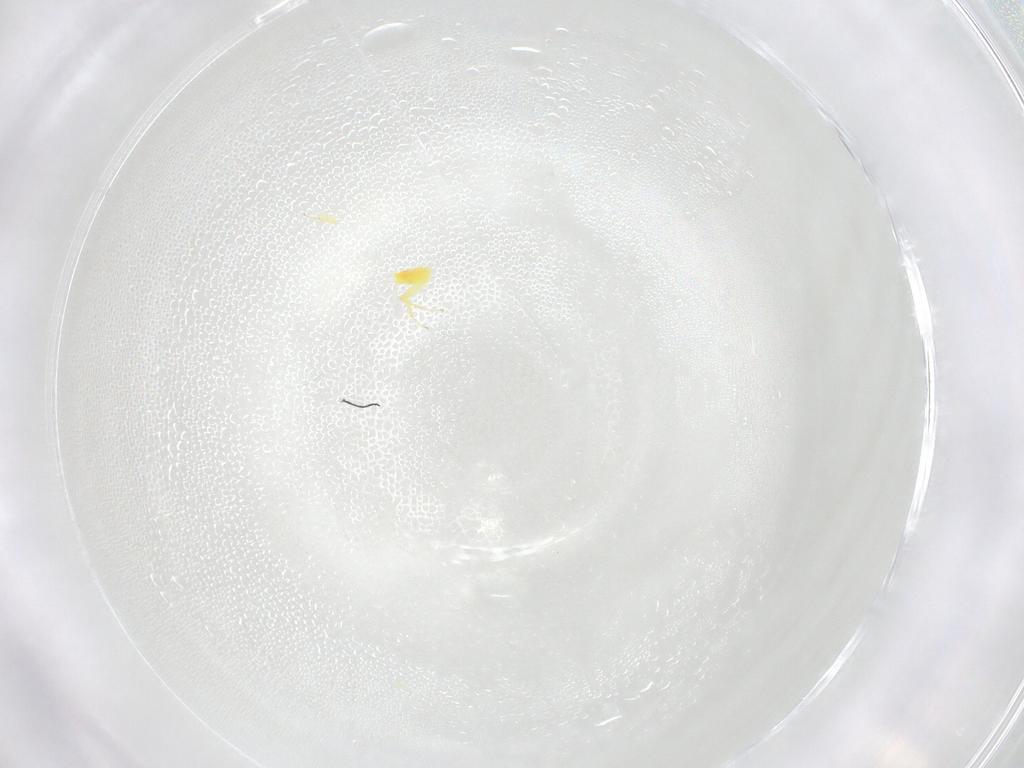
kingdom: Animalia
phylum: Arthropoda
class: Insecta
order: Hymenoptera
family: Aphelinidae
